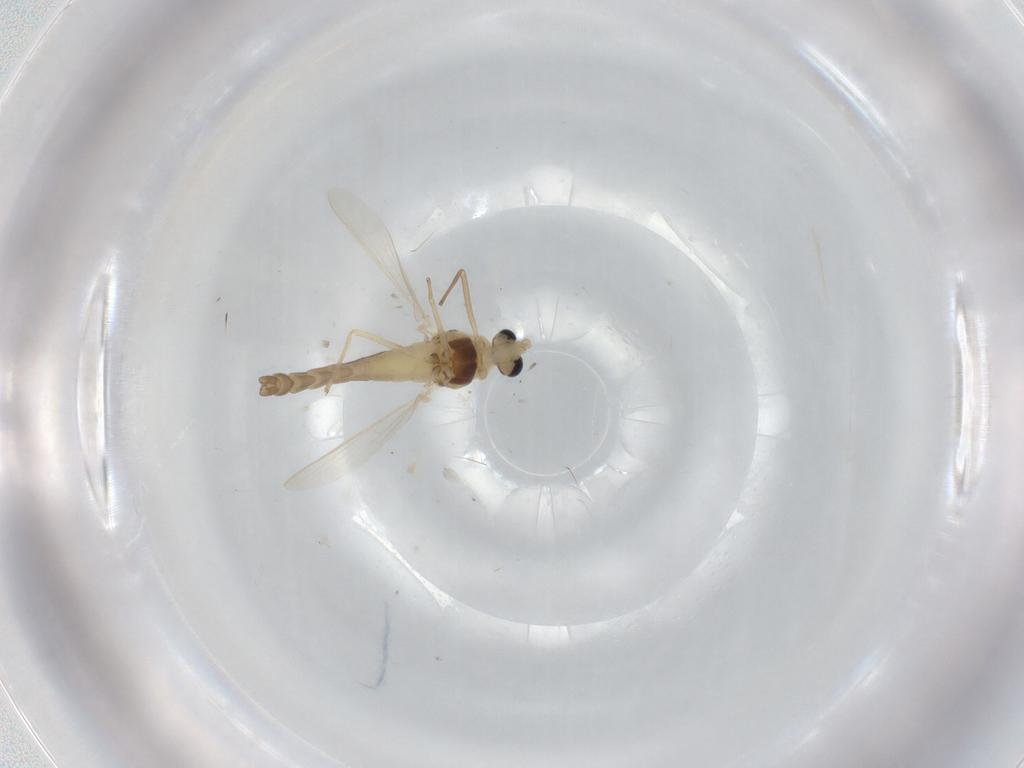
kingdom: Animalia
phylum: Arthropoda
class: Insecta
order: Diptera
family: Chironomidae
